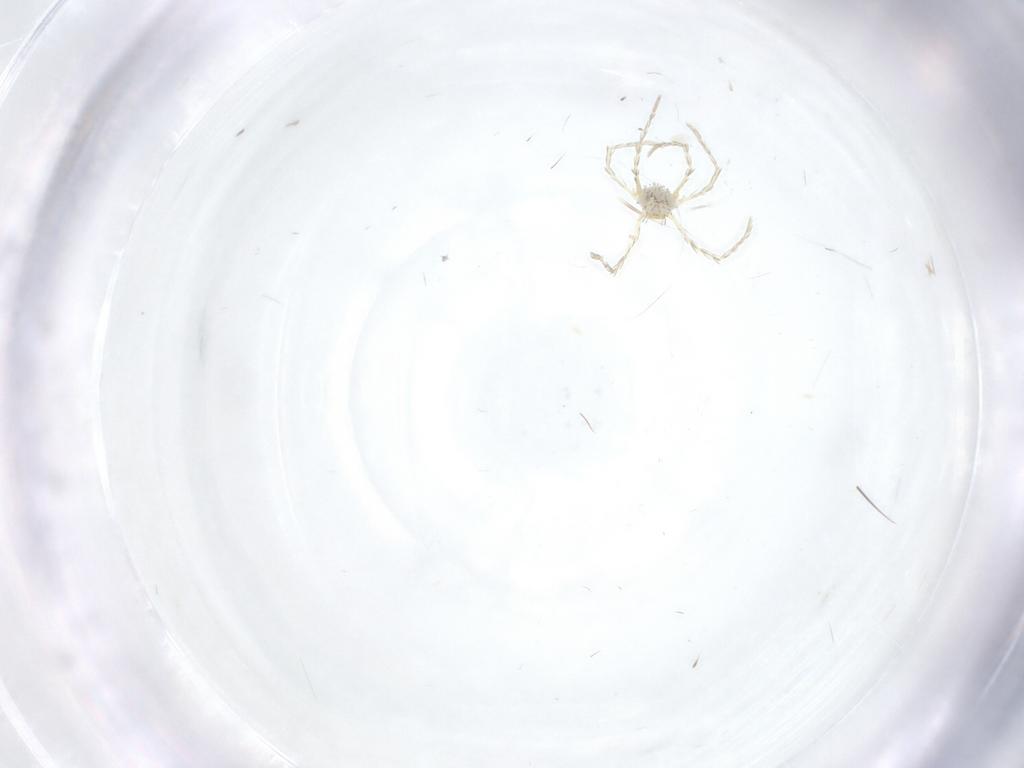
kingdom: Animalia
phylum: Arthropoda
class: Arachnida
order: Trombidiformes
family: Erythraeidae
